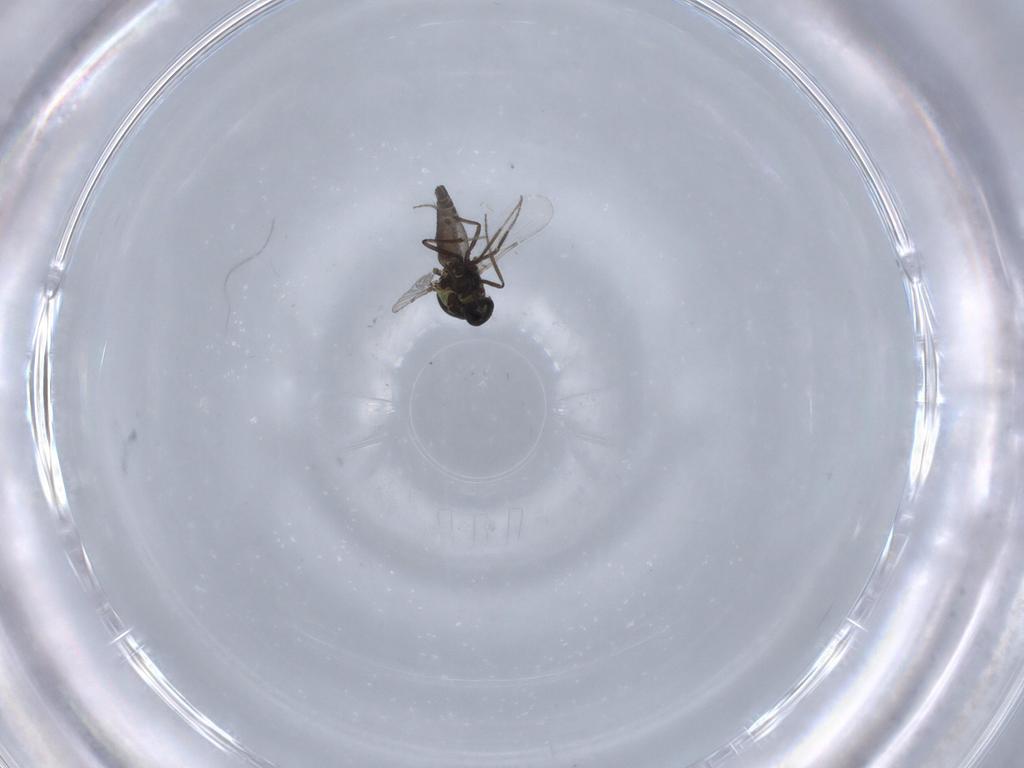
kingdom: Animalia
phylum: Arthropoda
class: Insecta
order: Diptera
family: Ceratopogonidae
